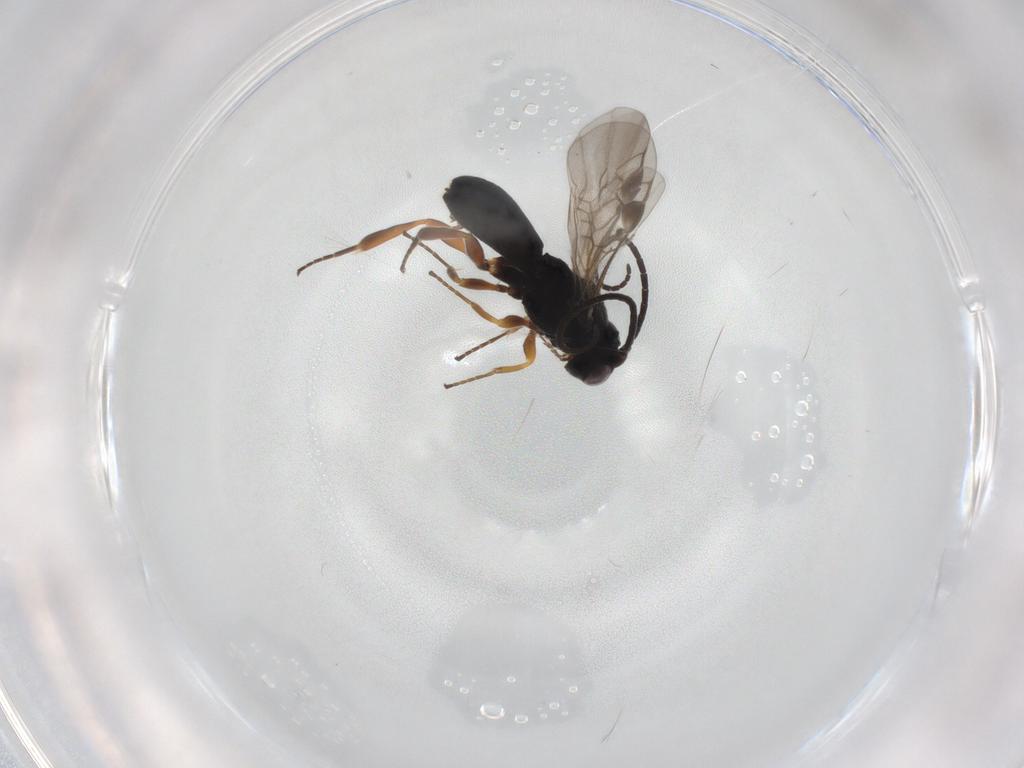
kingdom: Animalia
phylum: Arthropoda
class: Insecta
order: Hymenoptera
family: Braconidae
